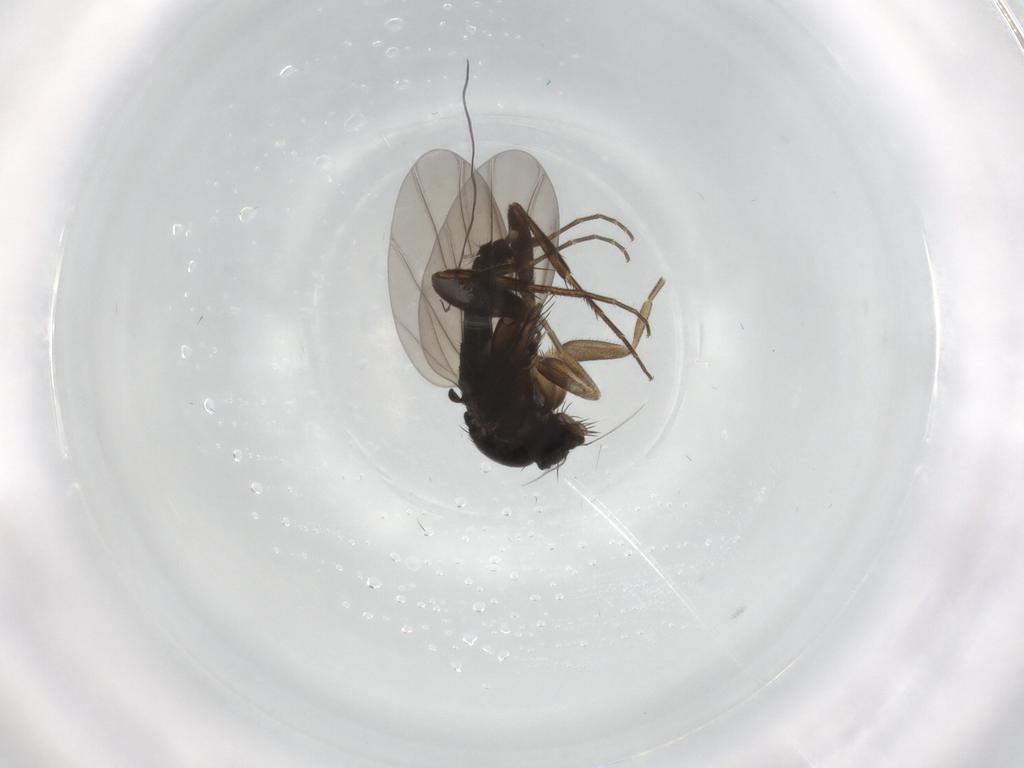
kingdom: Animalia
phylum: Arthropoda
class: Insecta
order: Diptera
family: Phoridae
